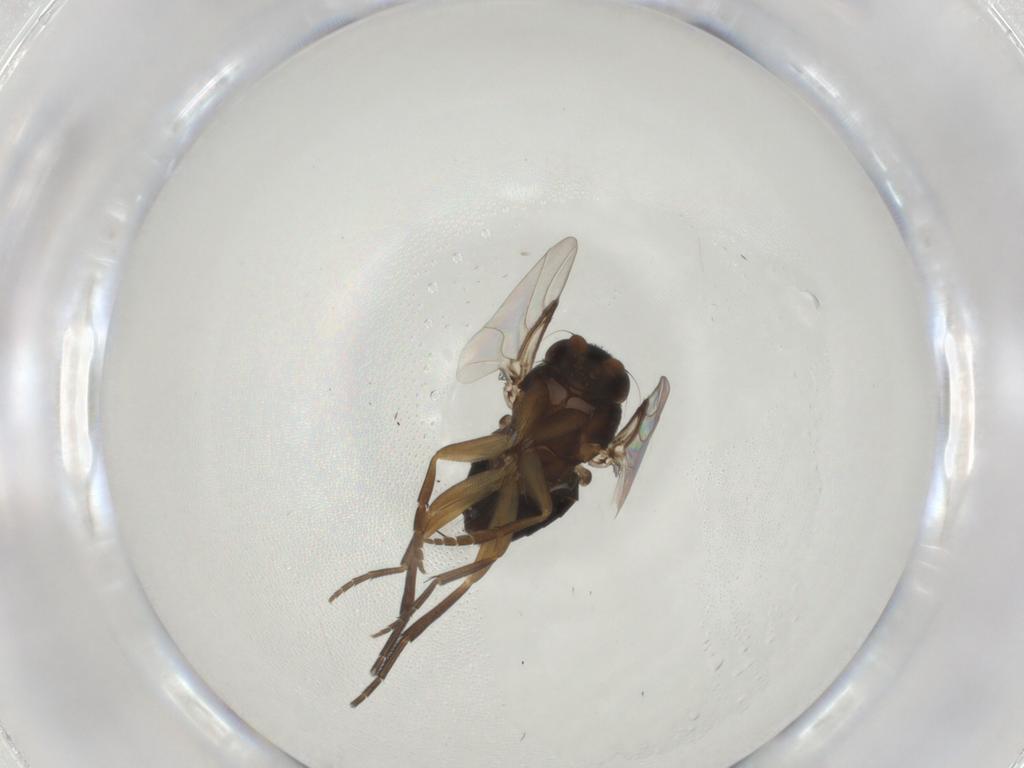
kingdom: Animalia
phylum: Arthropoda
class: Insecta
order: Diptera
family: Phoridae
